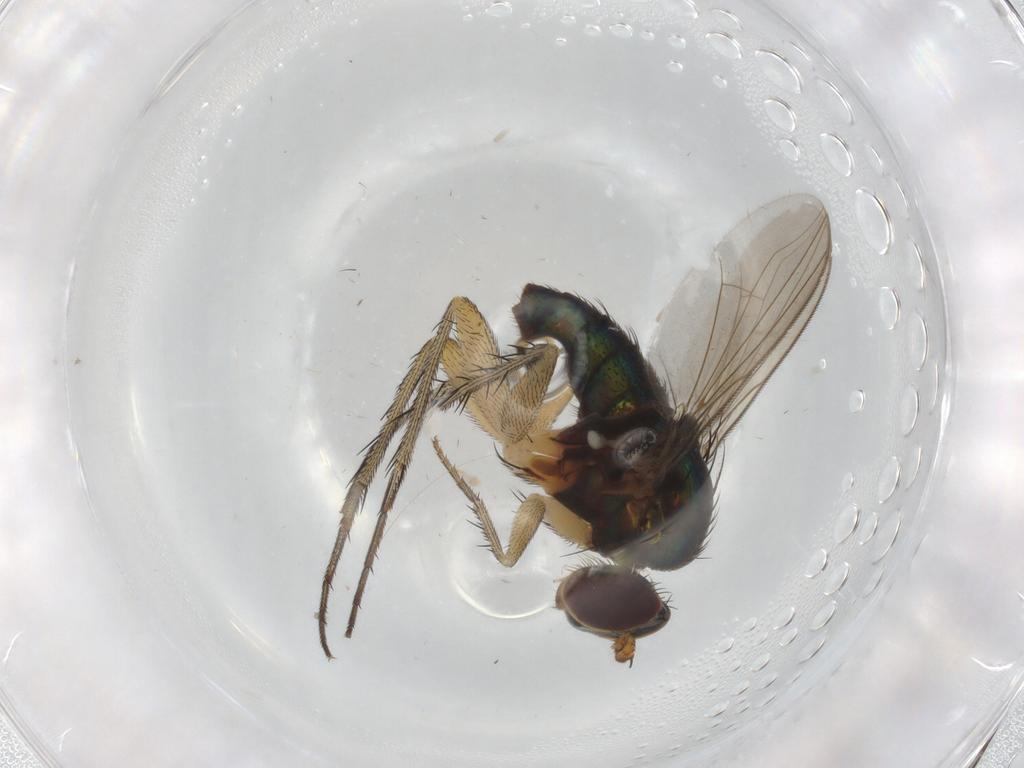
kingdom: Animalia
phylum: Arthropoda
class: Insecta
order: Diptera
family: Dolichopodidae
